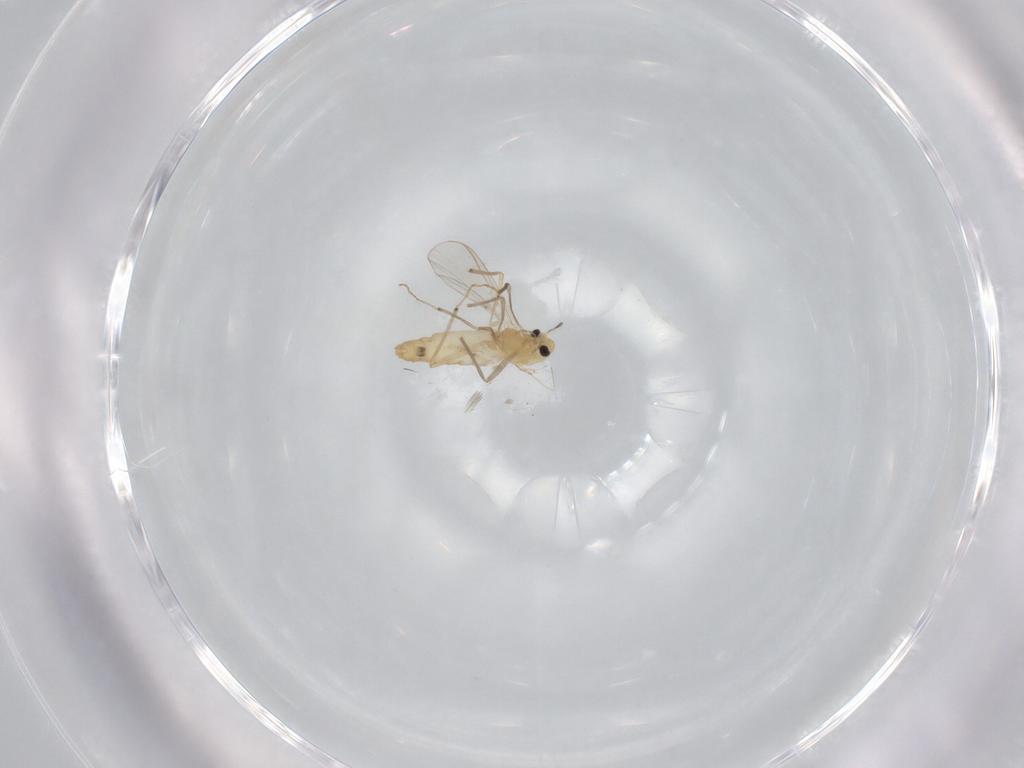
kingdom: Animalia
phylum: Arthropoda
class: Insecta
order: Diptera
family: Chironomidae
